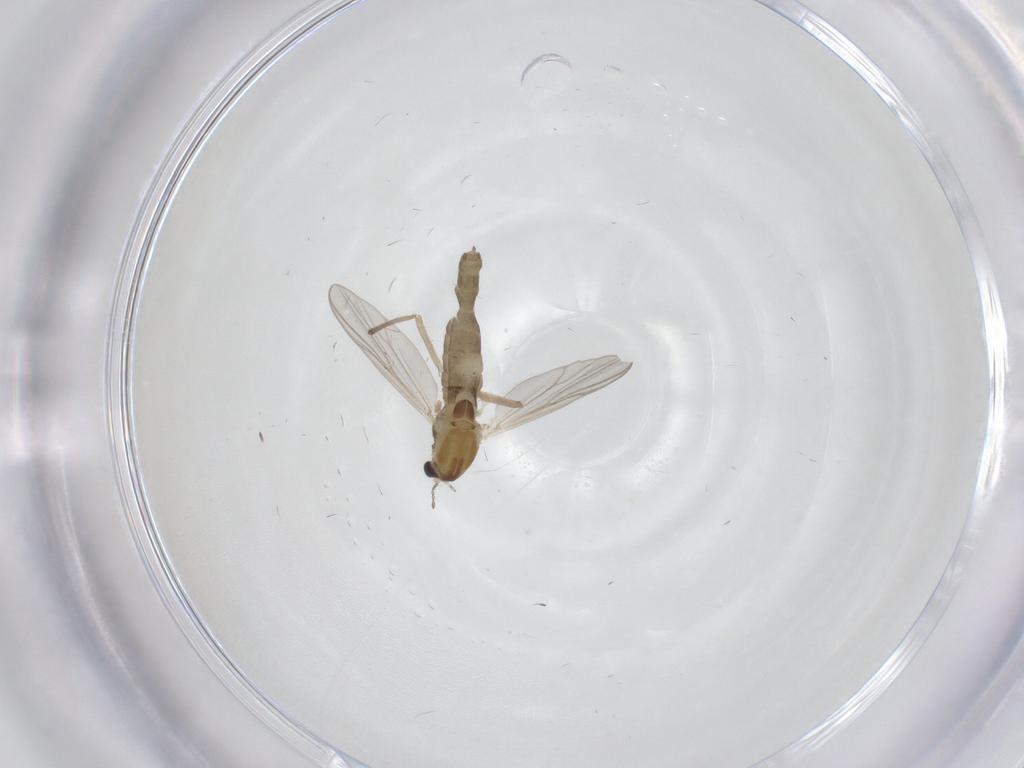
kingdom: Animalia
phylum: Arthropoda
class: Insecta
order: Diptera
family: Chironomidae
